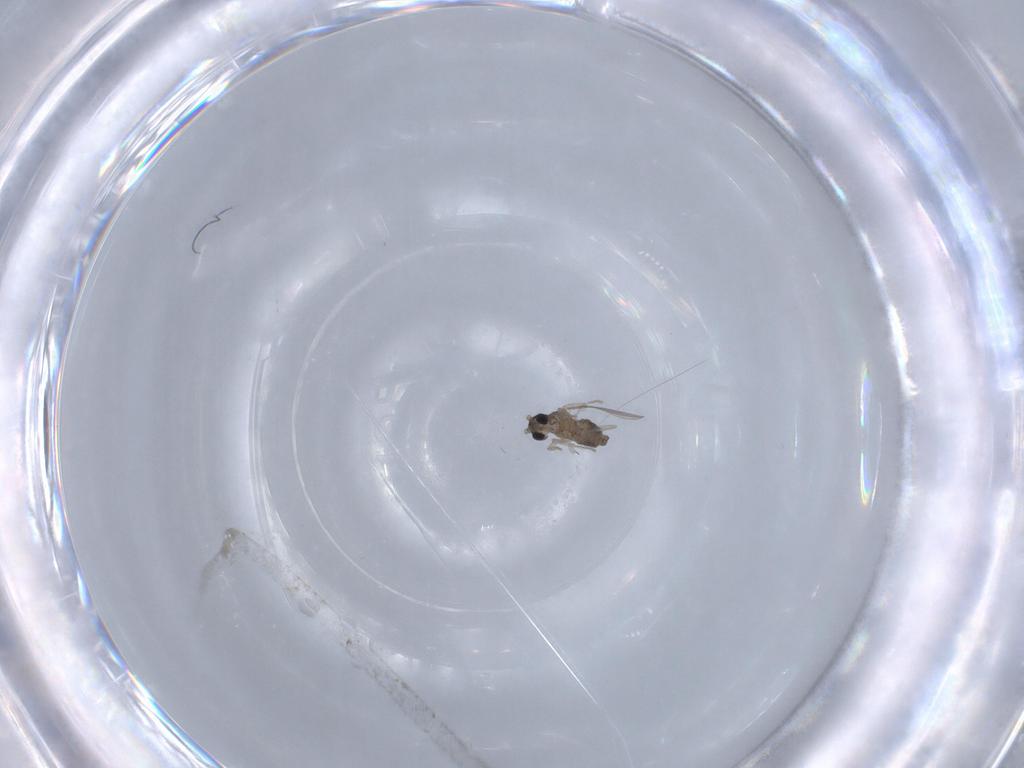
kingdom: Animalia
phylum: Arthropoda
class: Insecta
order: Diptera
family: Cecidomyiidae
